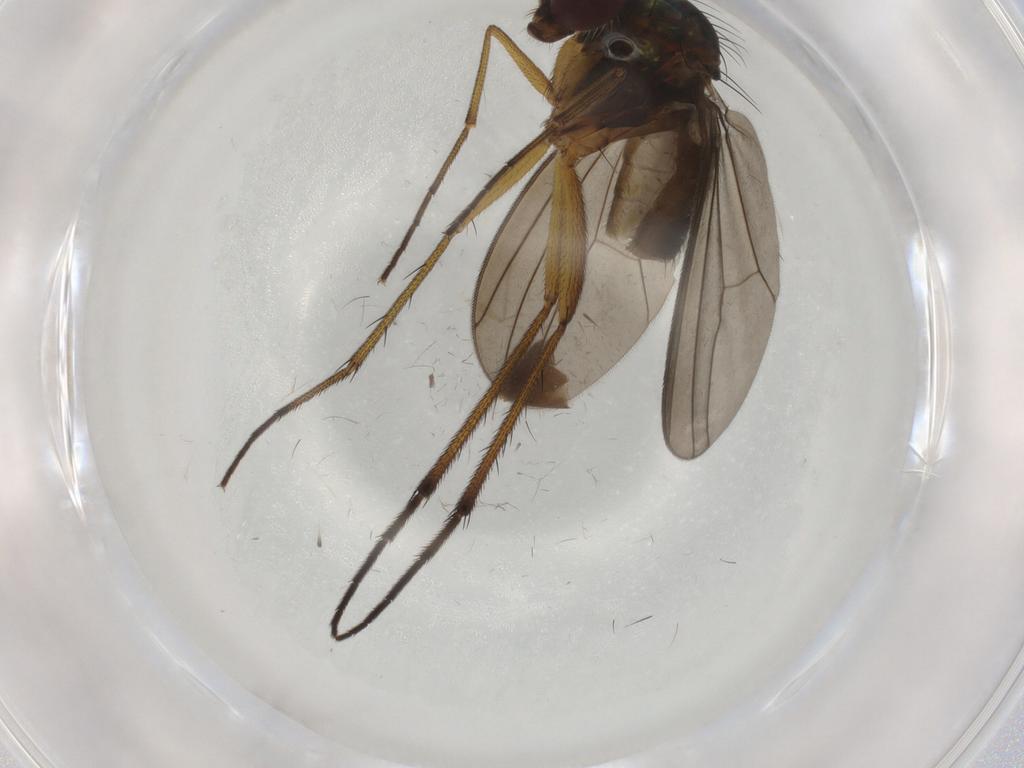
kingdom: Animalia
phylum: Arthropoda
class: Insecta
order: Diptera
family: Dolichopodidae
